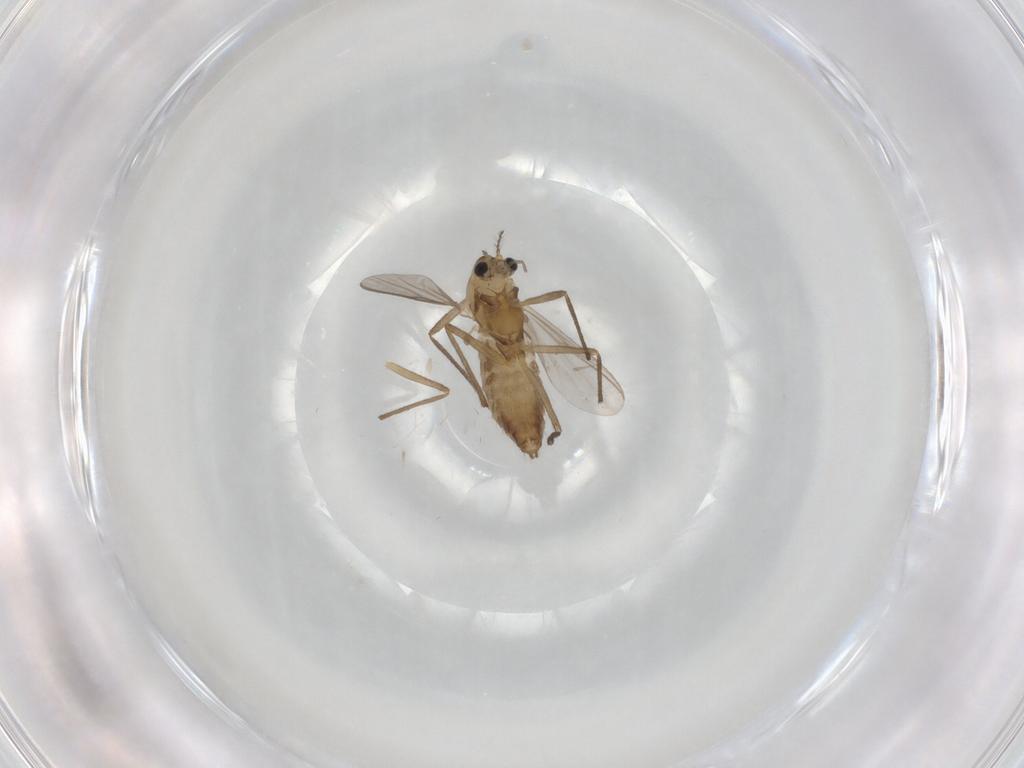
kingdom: Animalia
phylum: Arthropoda
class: Insecta
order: Diptera
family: Chironomidae
